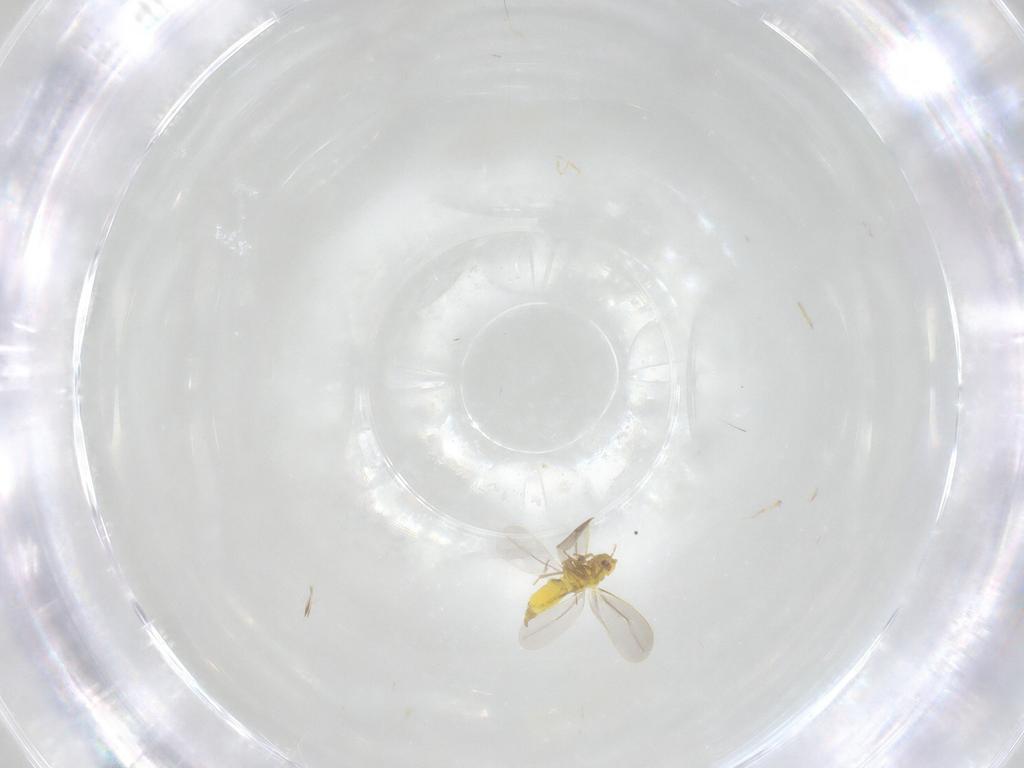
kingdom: Animalia
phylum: Arthropoda
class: Insecta
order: Hemiptera
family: Aleyrodidae
